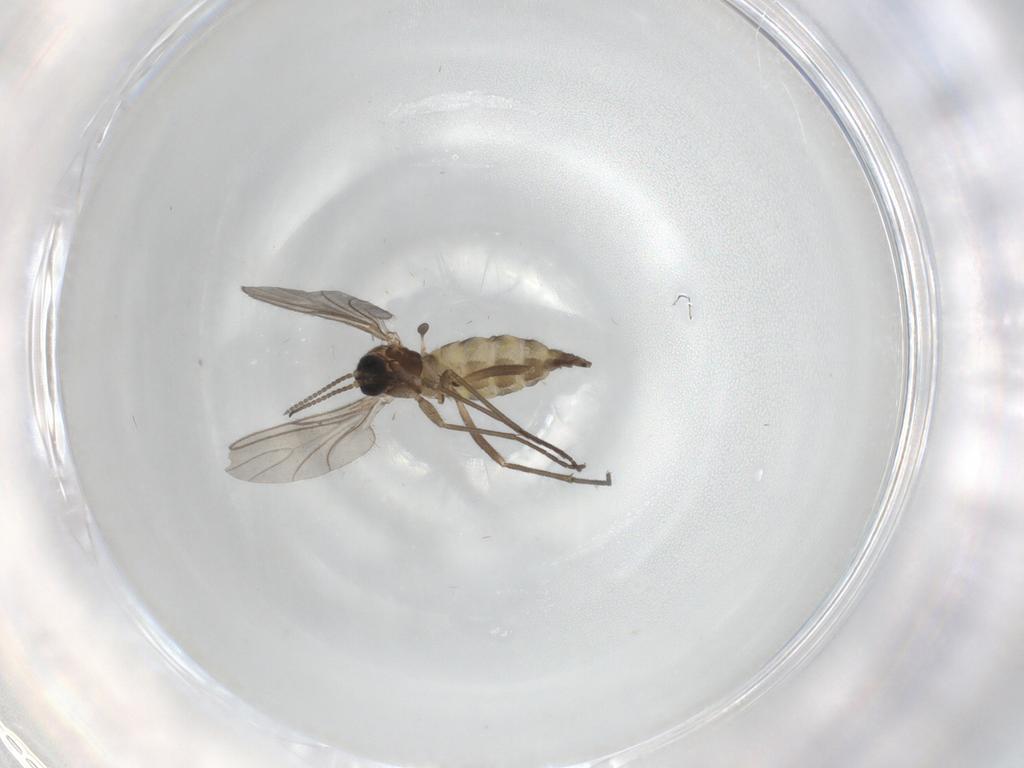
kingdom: Animalia
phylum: Arthropoda
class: Insecta
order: Diptera
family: Sciaridae
